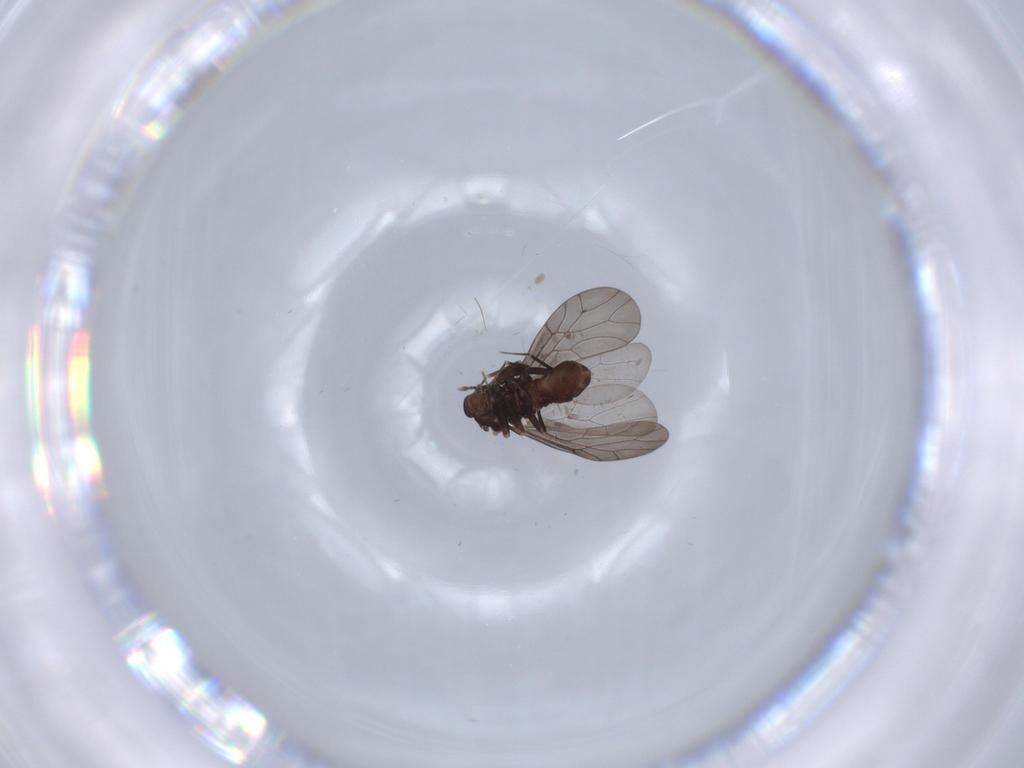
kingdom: Animalia
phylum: Arthropoda
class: Insecta
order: Psocodea
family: Lepidopsocidae
